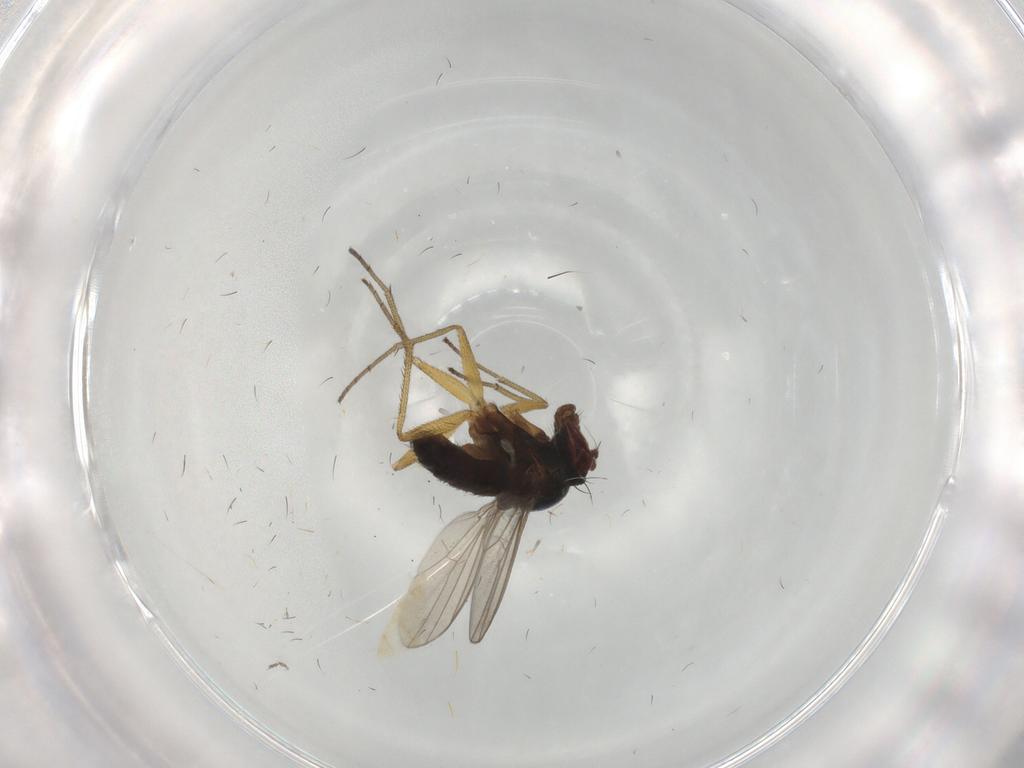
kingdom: Animalia
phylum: Arthropoda
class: Insecta
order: Diptera
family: Dolichopodidae
